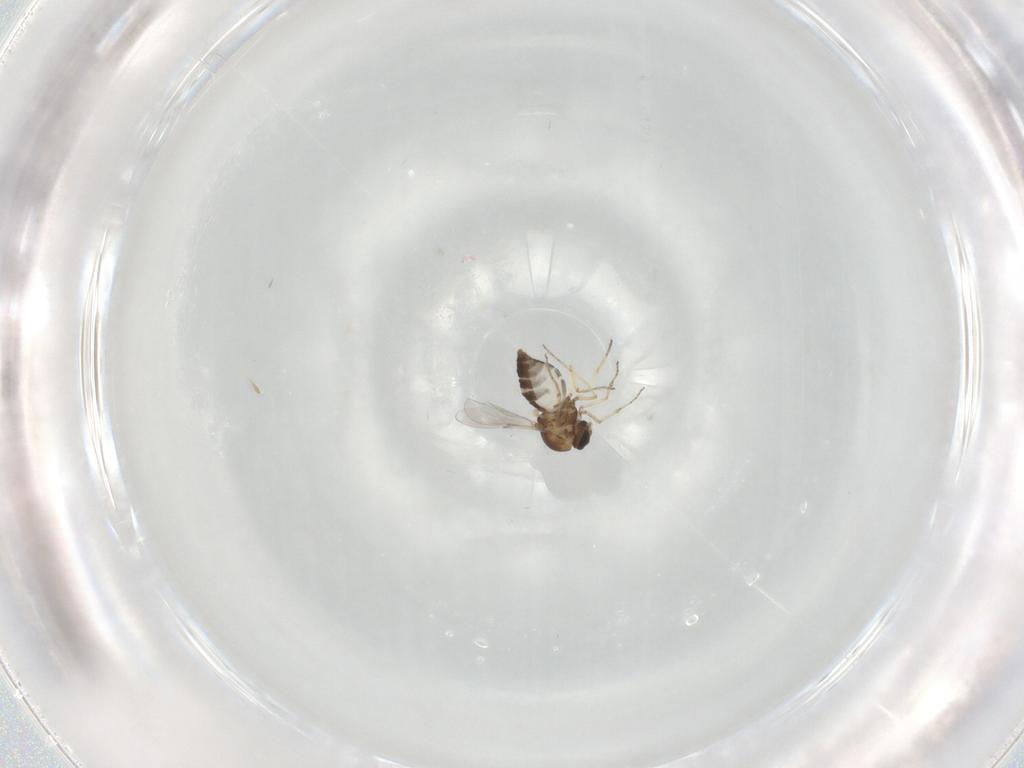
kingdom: Animalia
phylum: Arthropoda
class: Insecta
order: Diptera
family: Ceratopogonidae
